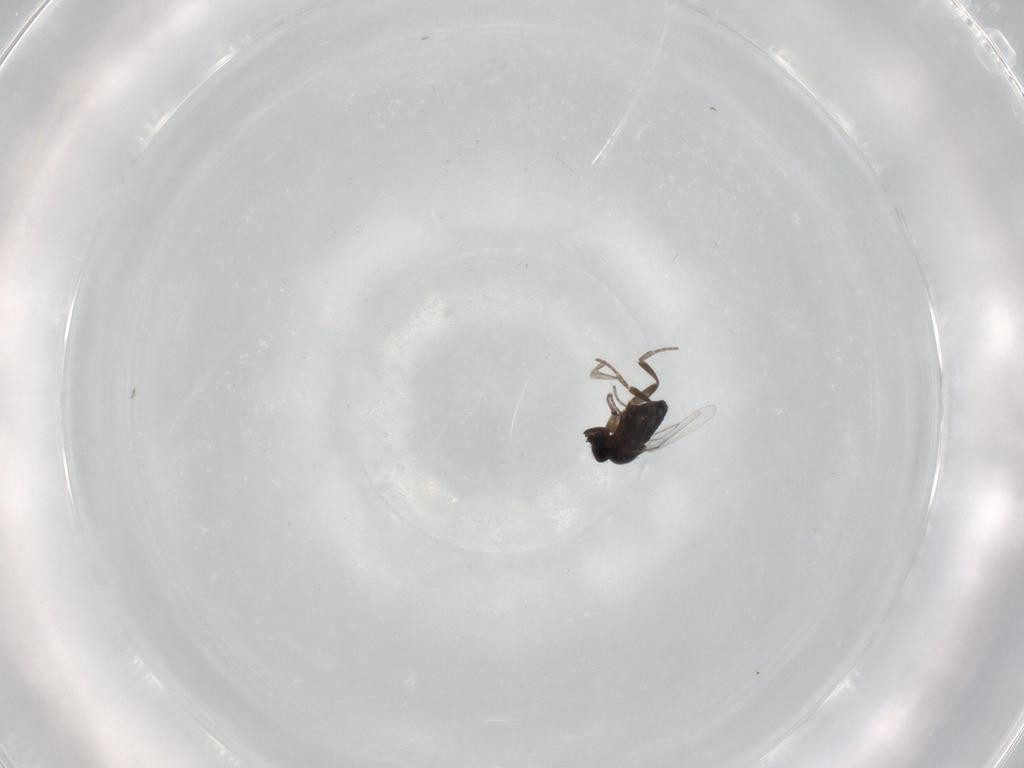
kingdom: Animalia
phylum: Arthropoda
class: Insecta
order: Diptera
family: Phoridae
